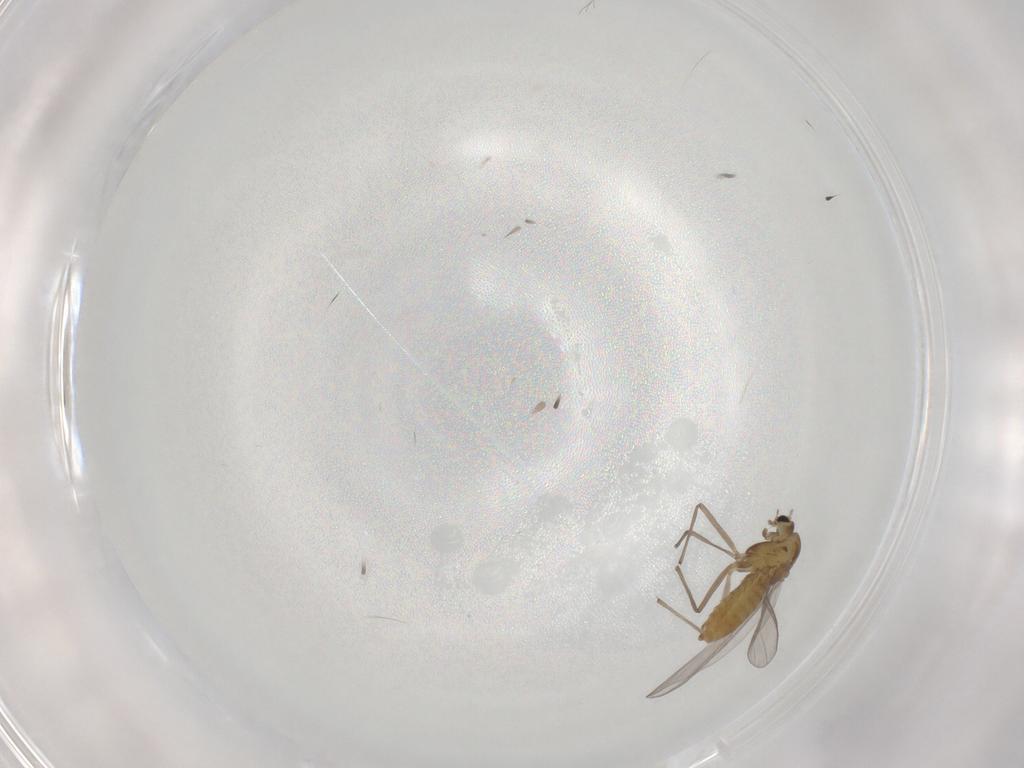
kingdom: Animalia
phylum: Arthropoda
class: Insecta
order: Diptera
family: Chironomidae
